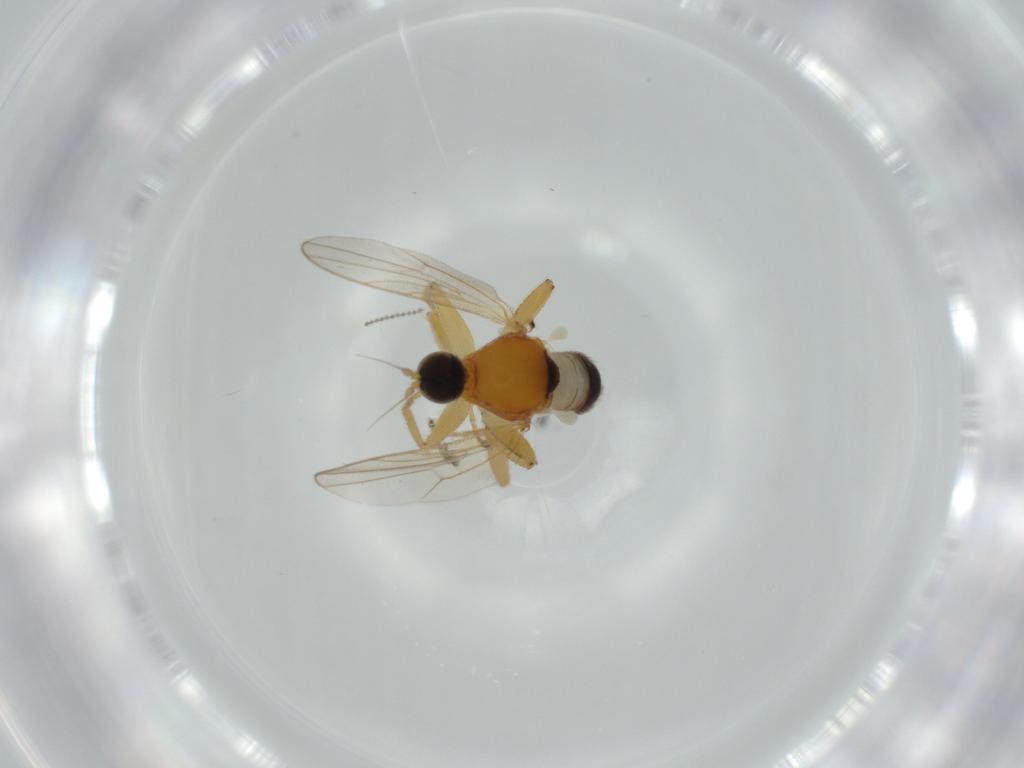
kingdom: Animalia
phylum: Arthropoda
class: Insecta
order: Diptera
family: Hybotidae
